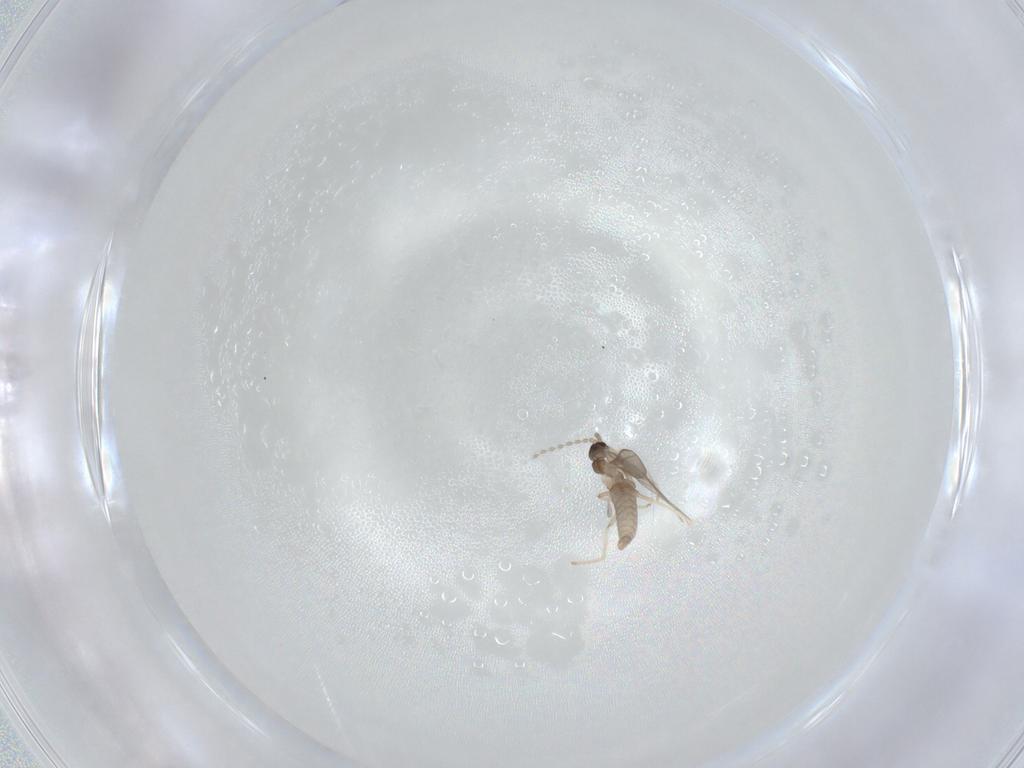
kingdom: Animalia
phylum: Arthropoda
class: Insecta
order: Diptera
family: Cecidomyiidae
